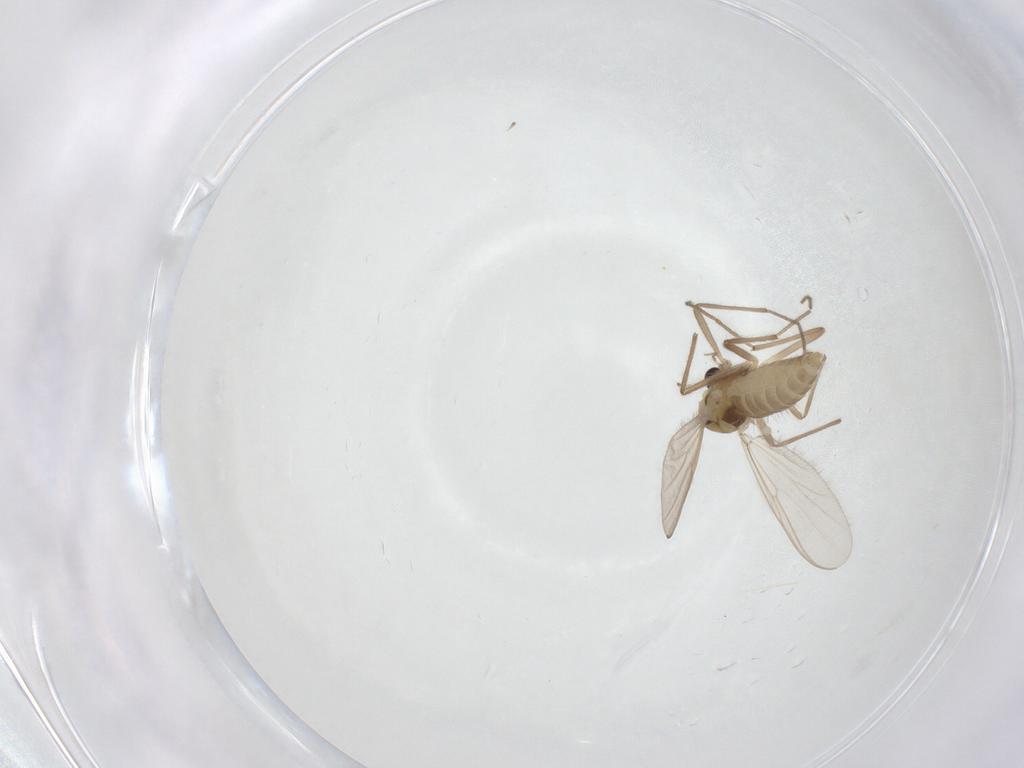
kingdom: Animalia
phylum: Arthropoda
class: Insecta
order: Diptera
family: Chironomidae
